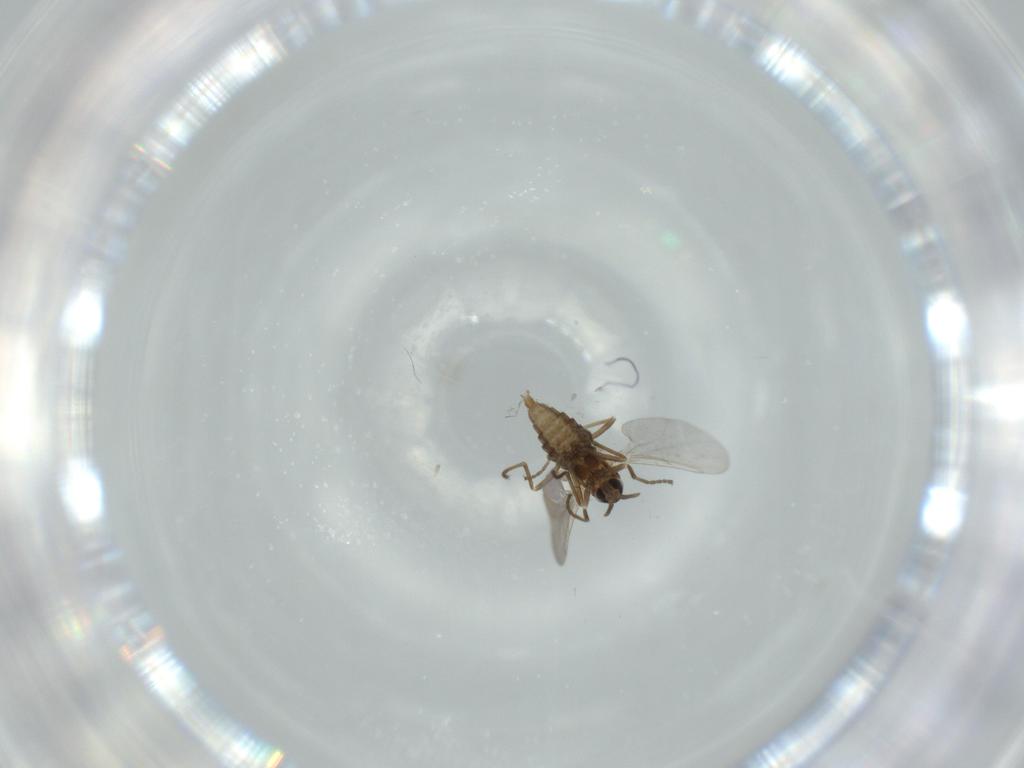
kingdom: Animalia
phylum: Arthropoda
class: Insecta
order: Diptera
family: Cecidomyiidae
